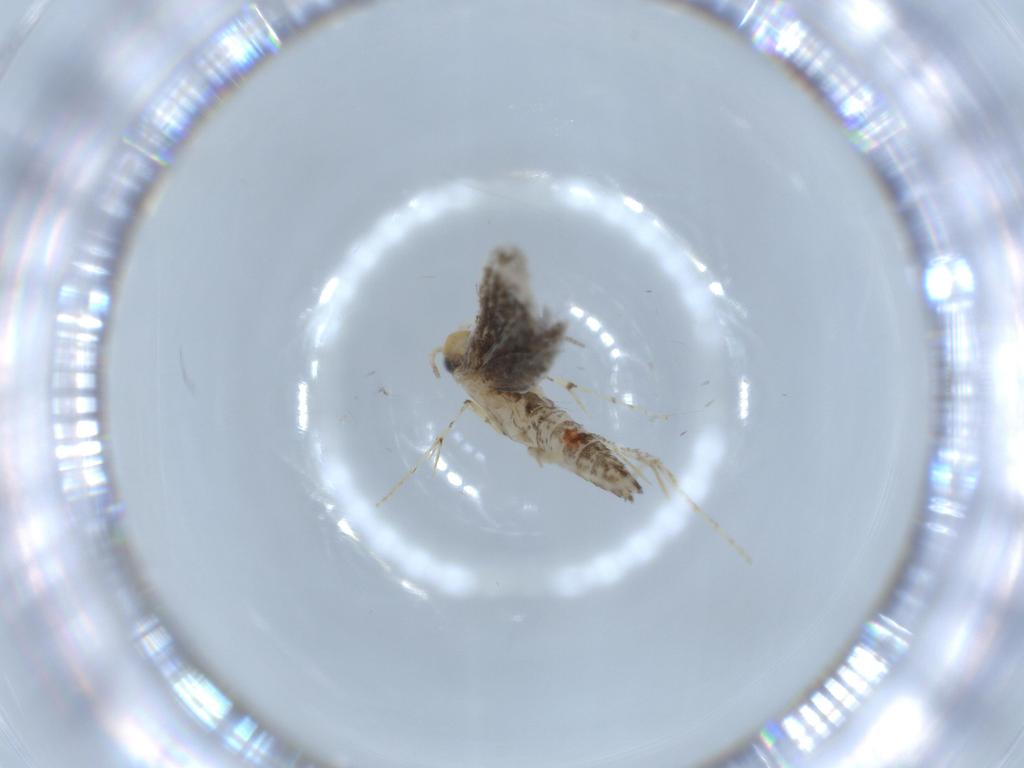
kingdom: Animalia
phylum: Arthropoda
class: Insecta
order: Lepidoptera
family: Argyresthiidae
